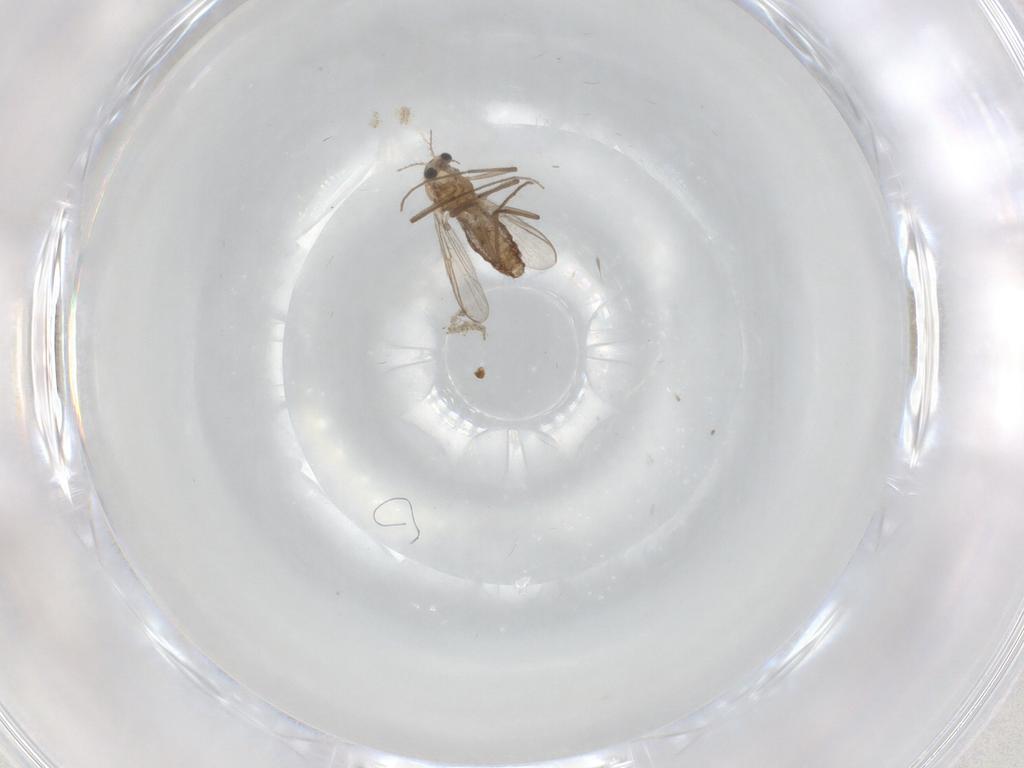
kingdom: Animalia
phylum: Arthropoda
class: Insecta
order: Diptera
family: Chironomidae
